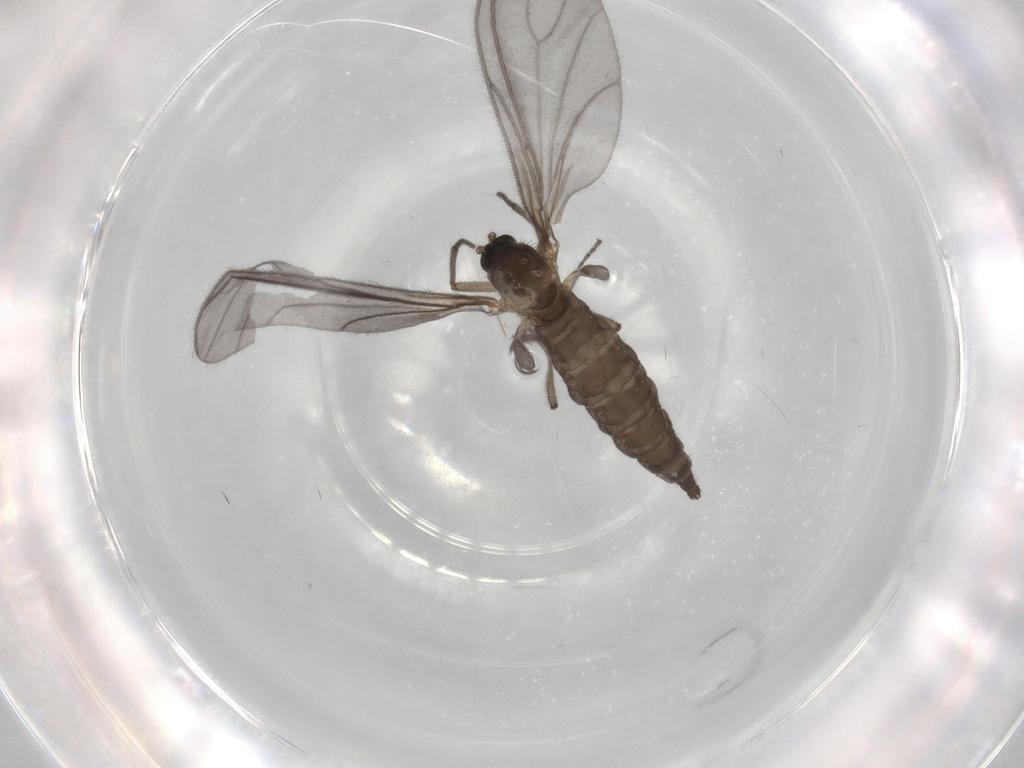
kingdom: Animalia
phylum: Arthropoda
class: Insecta
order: Diptera
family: Sciaridae
